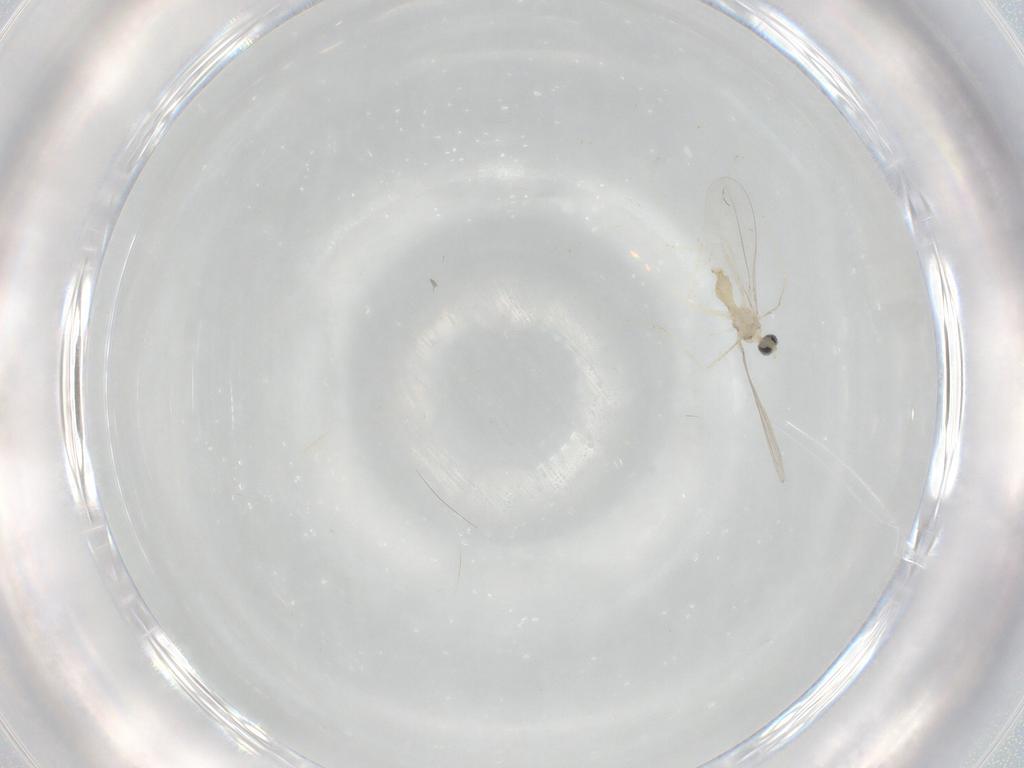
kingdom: Animalia
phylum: Arthropoda
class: Insecta
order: Diptera
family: Cecidomyiidae
